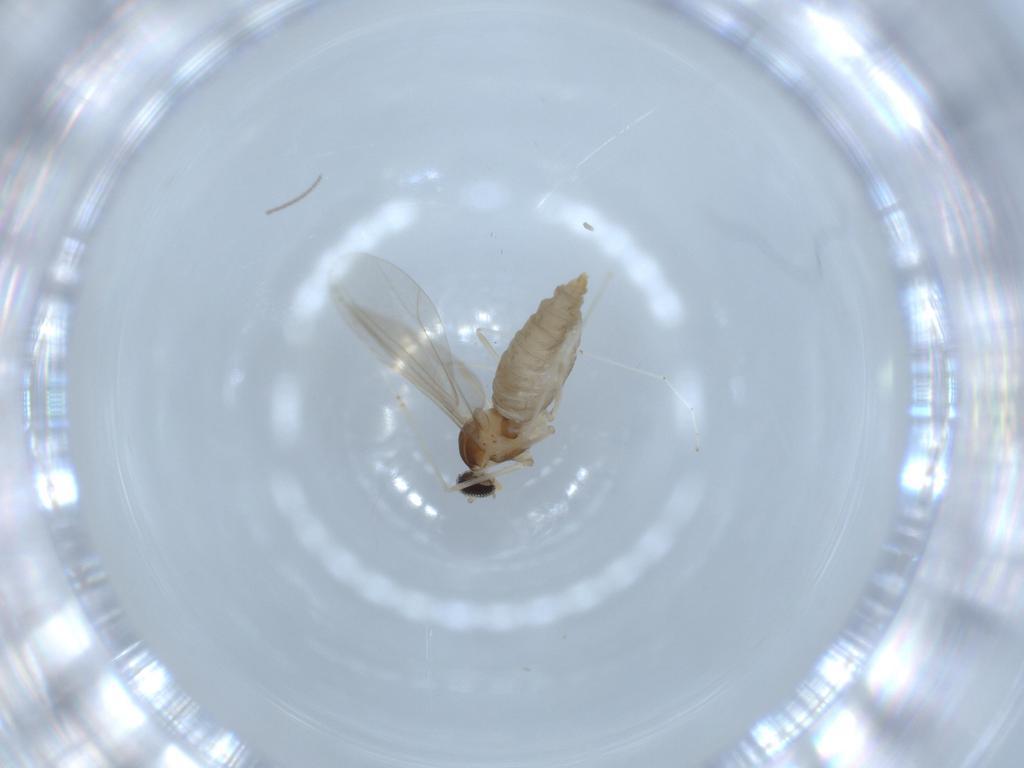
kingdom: Animalia
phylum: Arthropoda
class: Insecta
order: Diptera
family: Cecidomyiidae
